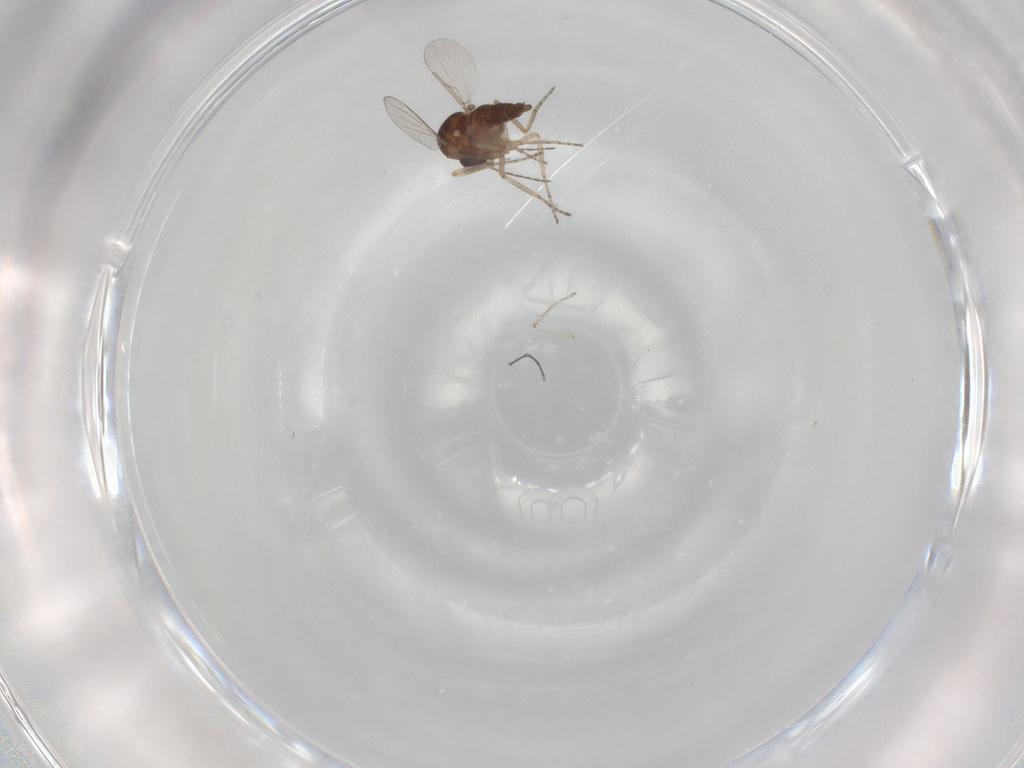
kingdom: Animalia
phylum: Arthropoda
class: Insecta
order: Diptera
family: Ceratopogonidae
